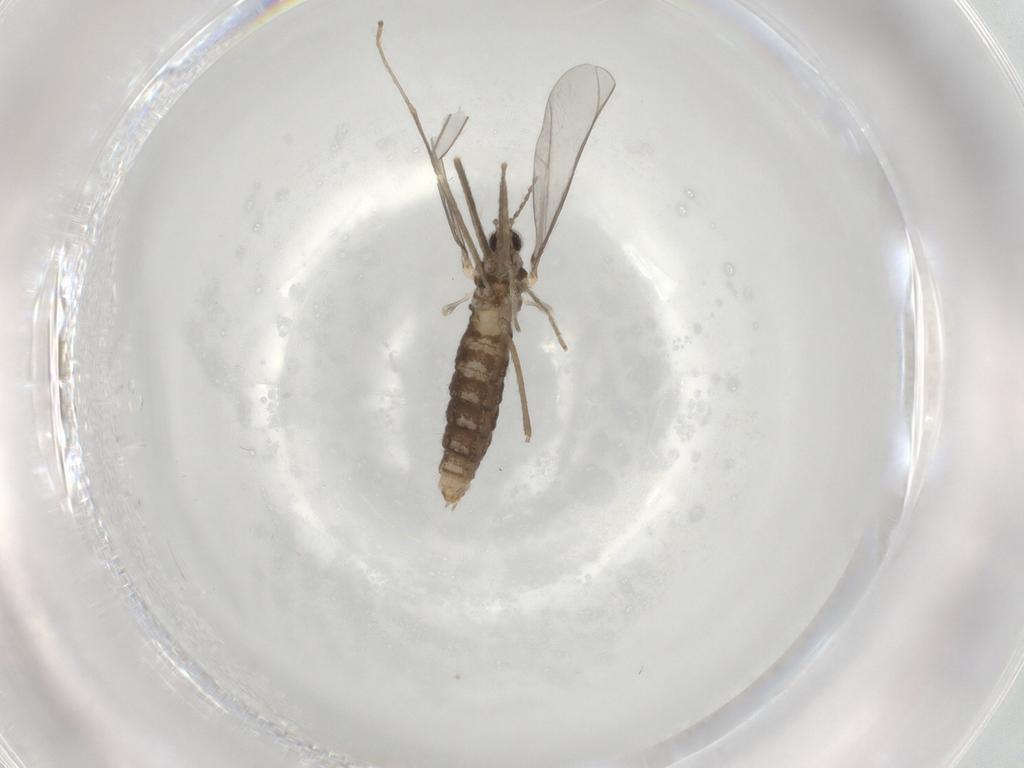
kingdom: Animalia
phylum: Arthropoda
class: Insecta
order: Diptera
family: Cecidomyiidae
